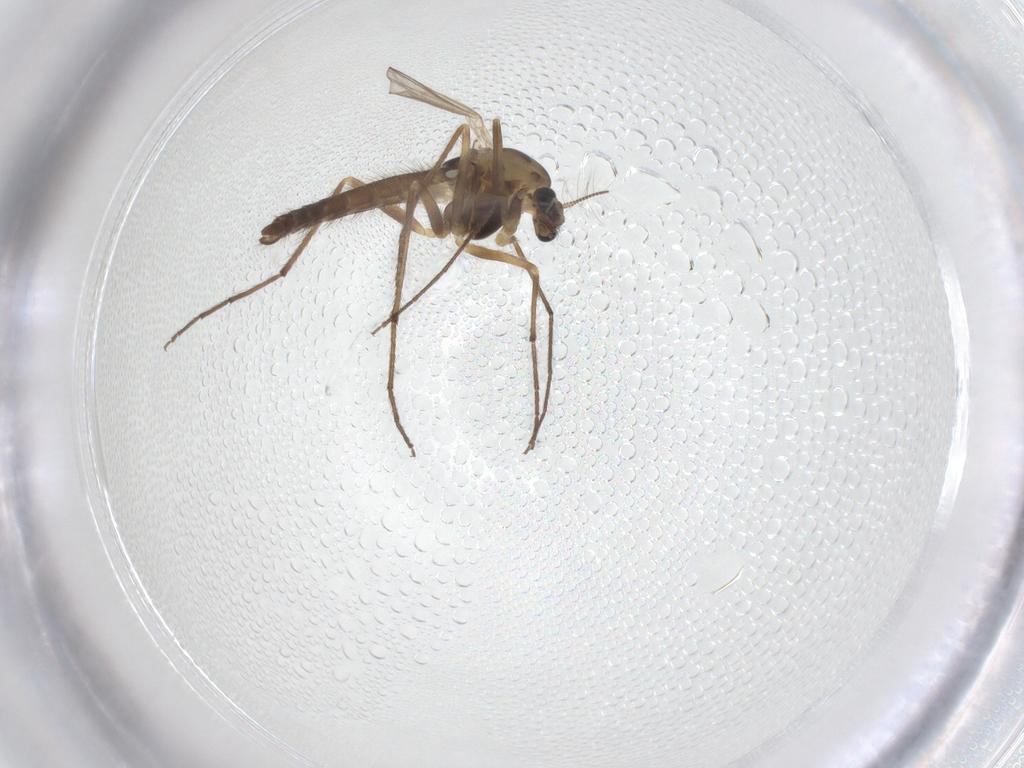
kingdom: Animalia
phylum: Arthropoda
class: Insecta
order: Diptera
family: Chironomidae
